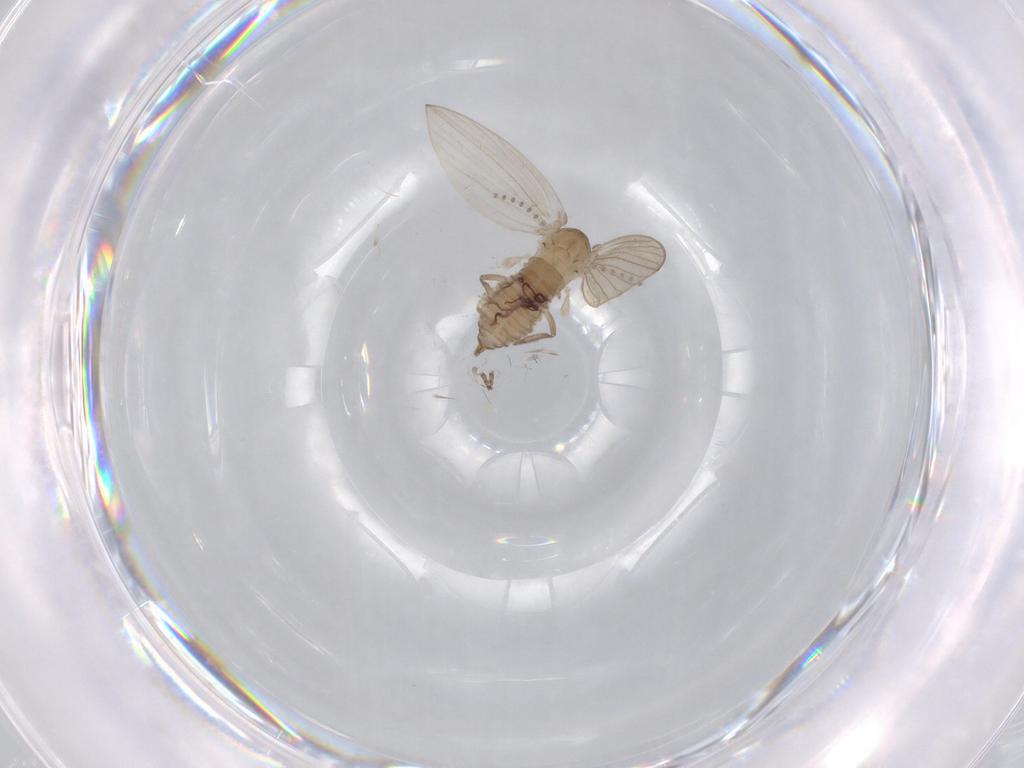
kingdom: Animalia
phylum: Arthropoda
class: Insecta
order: Diptera
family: Psychodidae
